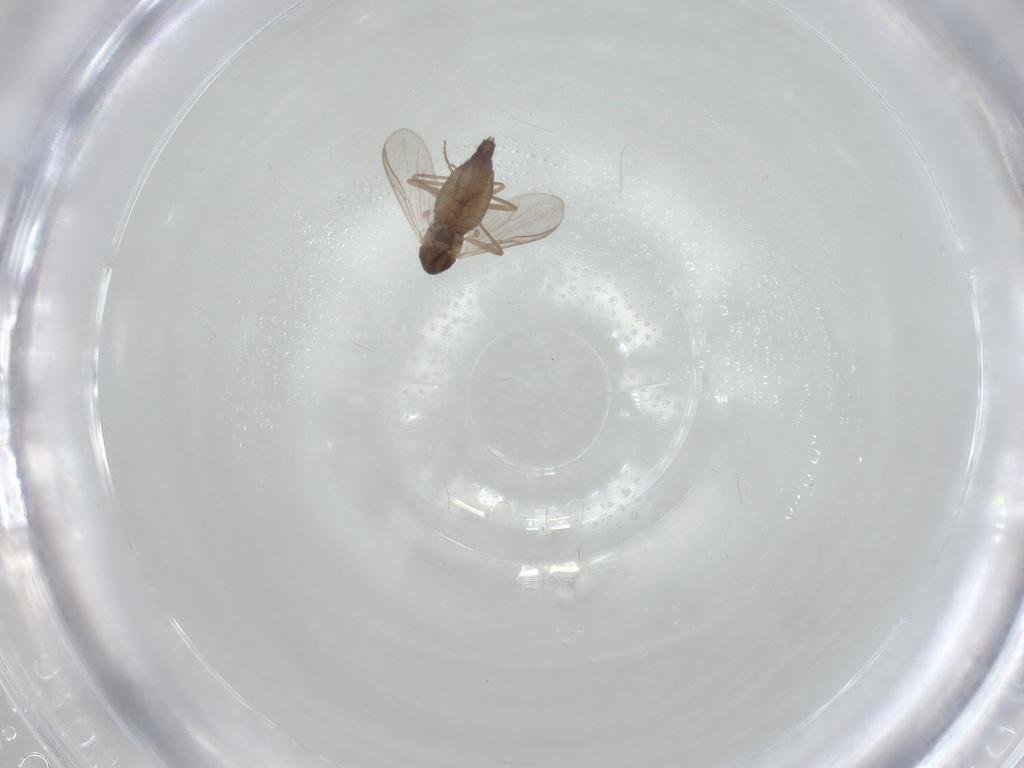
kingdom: Animalia
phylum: Arthropoda
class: Insecta
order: Diptera
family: Chironomidae
